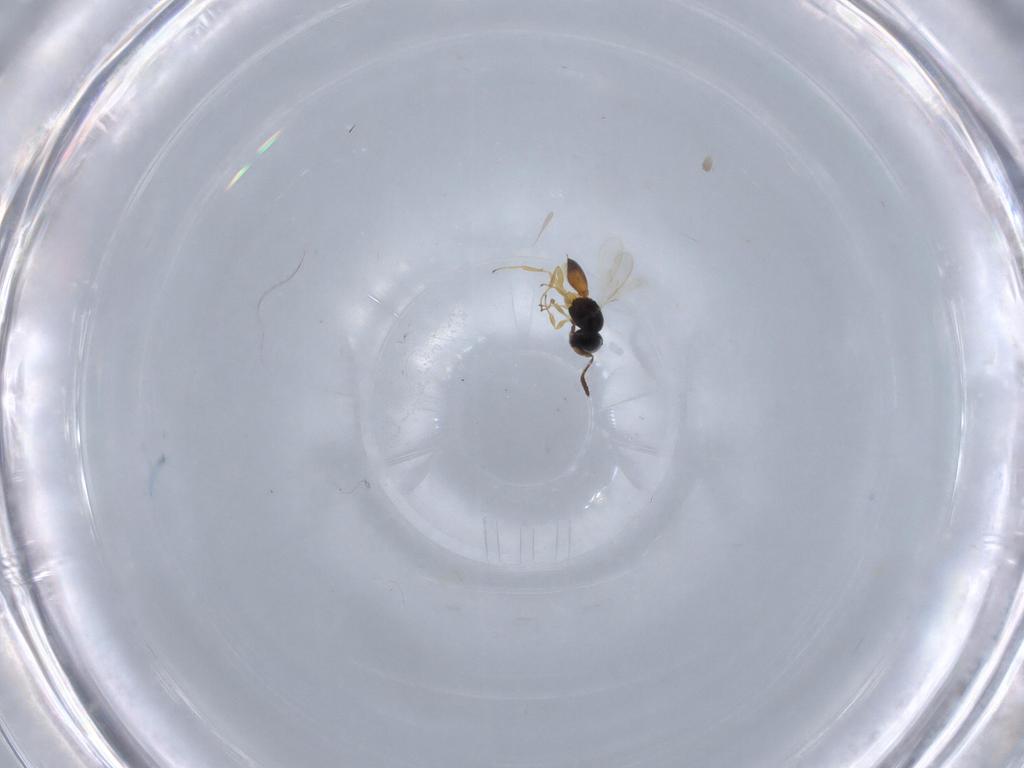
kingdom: Animalia
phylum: Arthropoda
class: Insecta
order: Hymenoptera
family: Scelionidae
